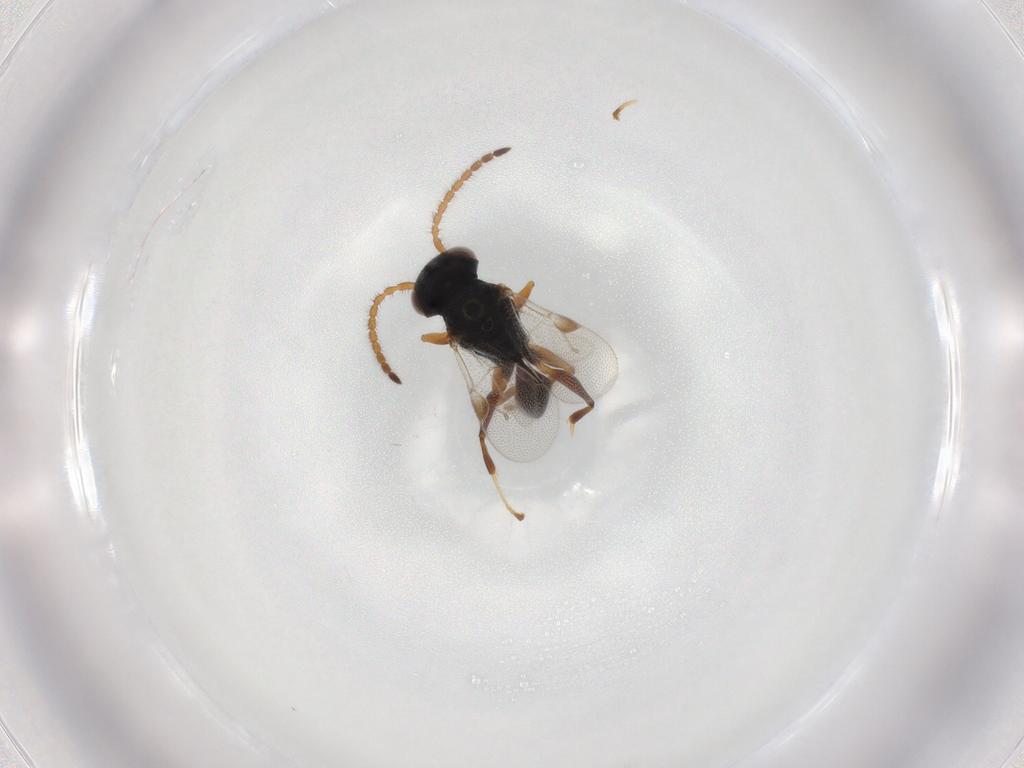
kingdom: Animalia
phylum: Arthropoda
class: Insecta
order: Hymenoptera
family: Dryinidae
